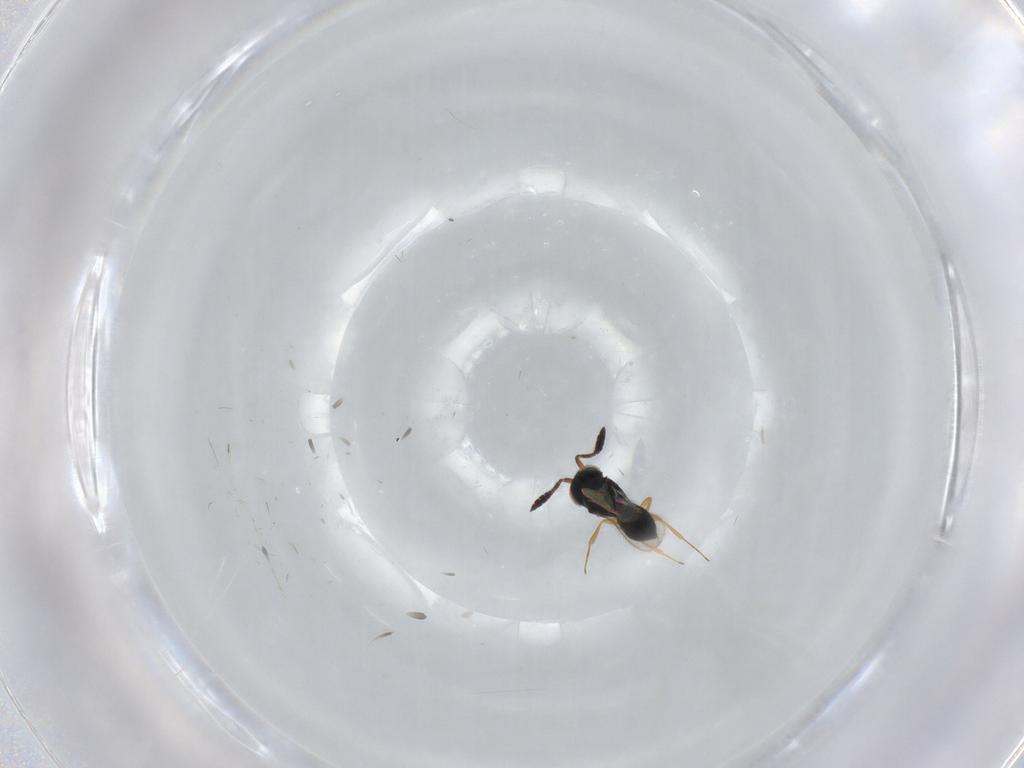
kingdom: Animalia
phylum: Arthropoda
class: Insecta
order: Hymenoptera
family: Scelionidae
